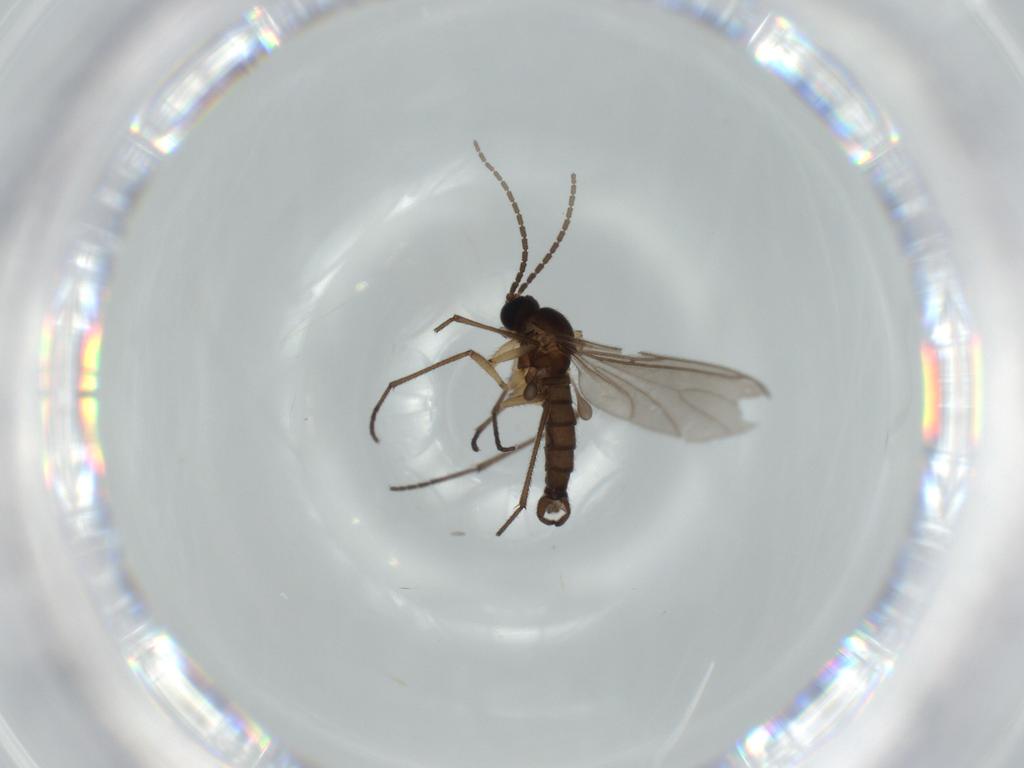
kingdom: Animalia
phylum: Arthropoda
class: Insecta
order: Diptera
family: Sciaridae
